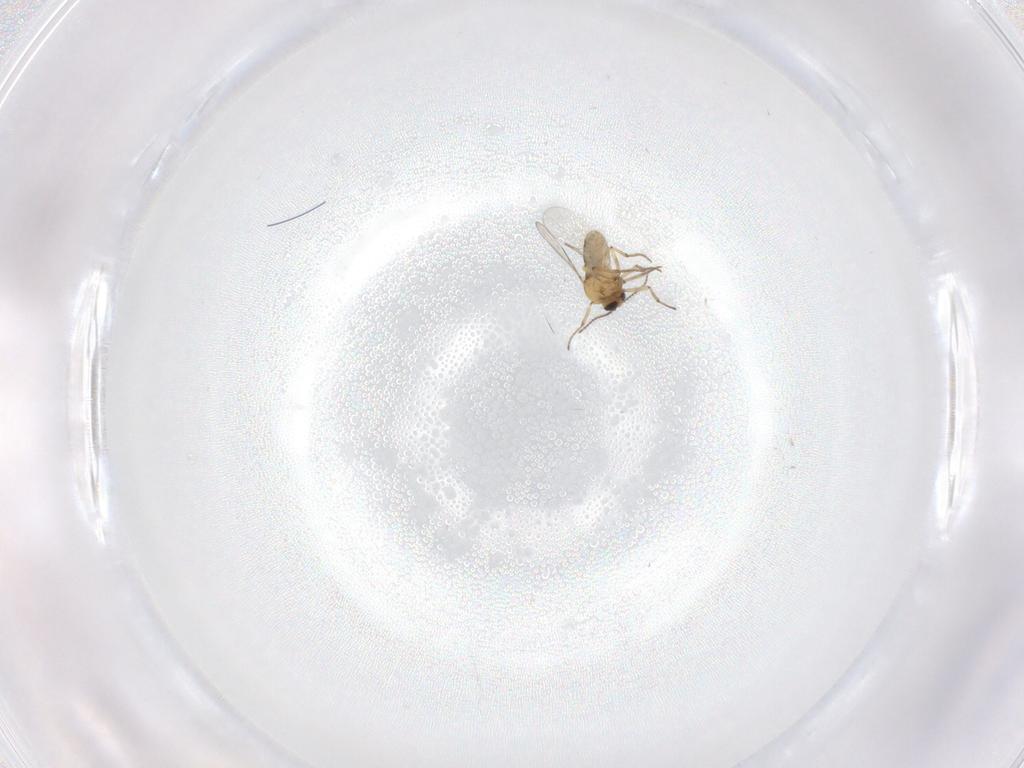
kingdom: Animalia
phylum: Arthropoda
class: Insecta
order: Diptera
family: Ceratopogonidae
